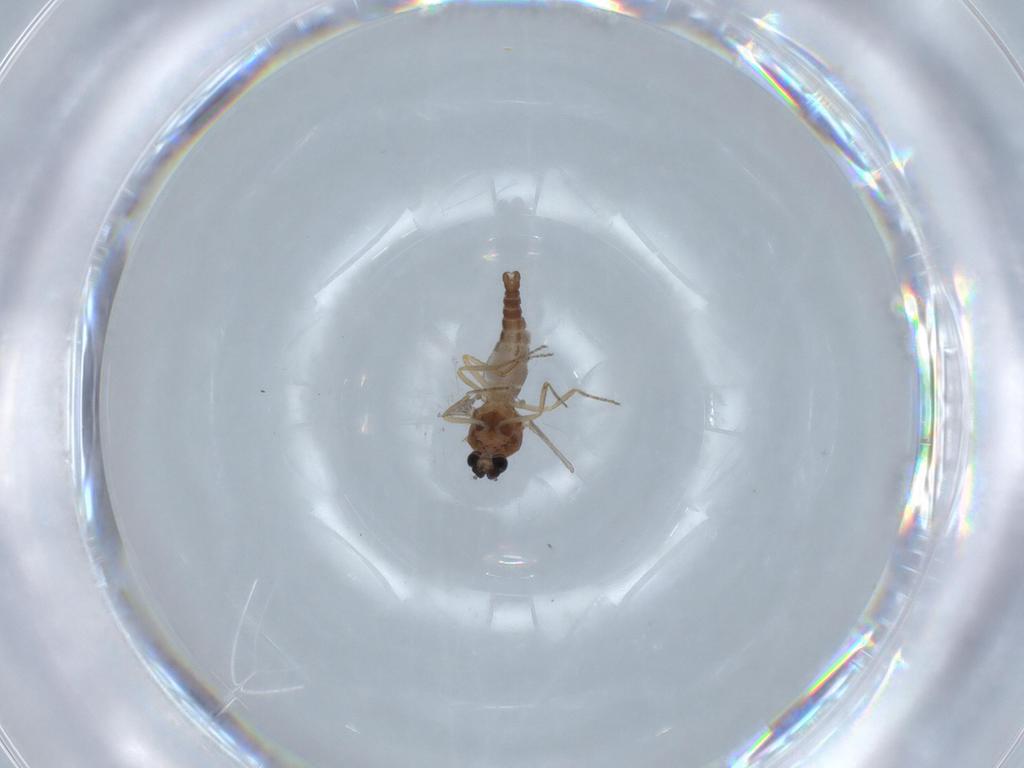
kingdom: Animalia
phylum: Arthropoda
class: Insecta
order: Diptera
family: Ceratopogonidae
